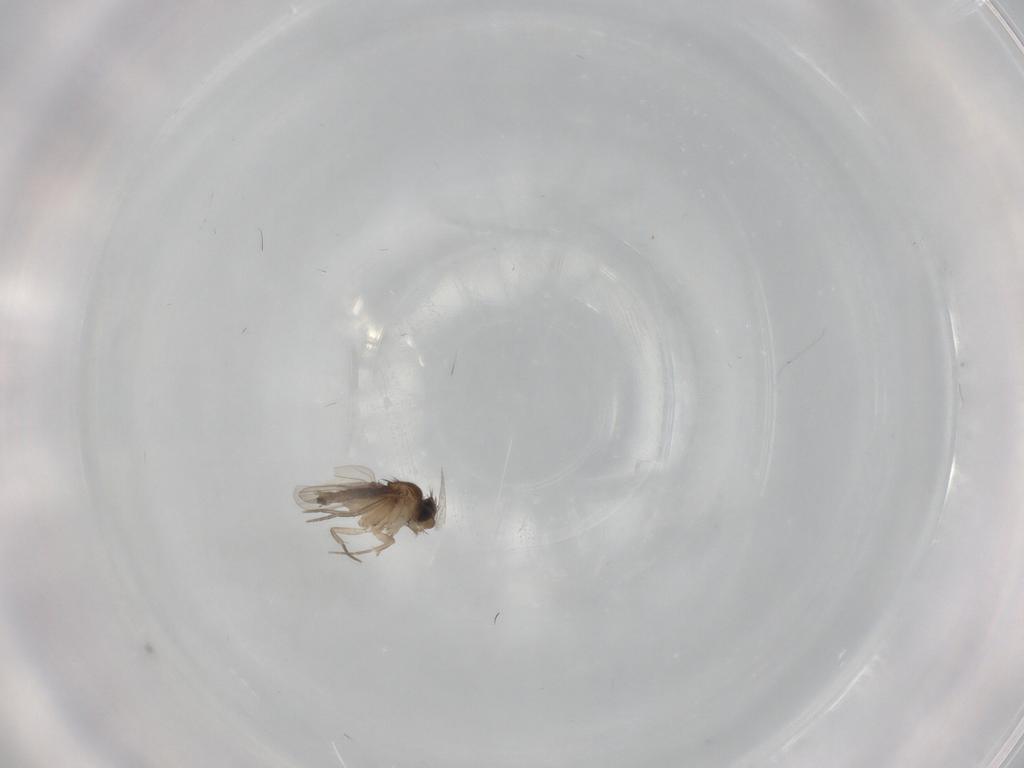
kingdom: Animalia
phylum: Arthropoda
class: Insecta
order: Diptera
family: Phoridae
